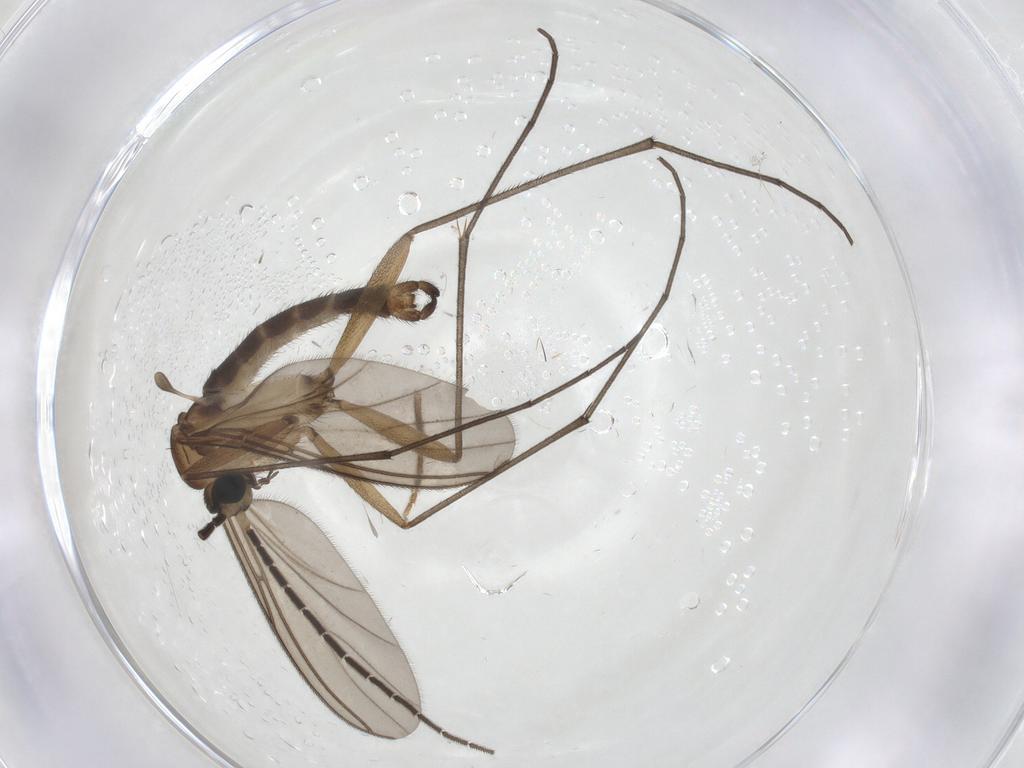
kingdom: Animalia
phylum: Arthropoda
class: Insecta
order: Diptera
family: Sciaridae
